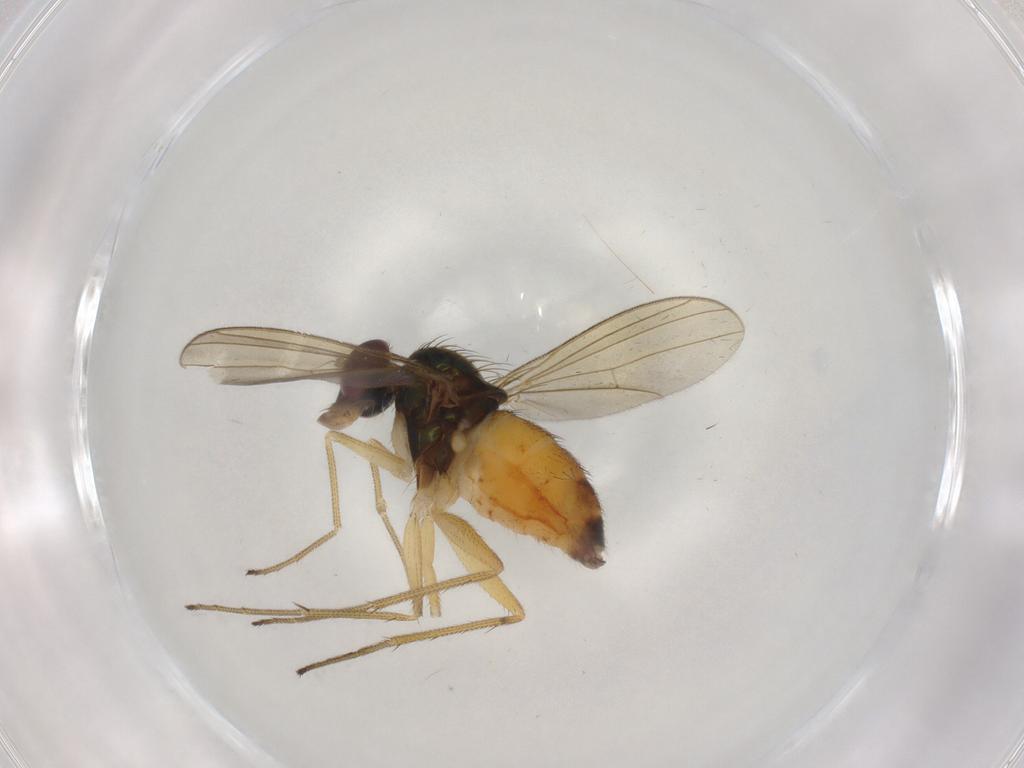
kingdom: Animalia
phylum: Arthropoda
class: Insecta
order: Diptera
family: Dolichopodidae
